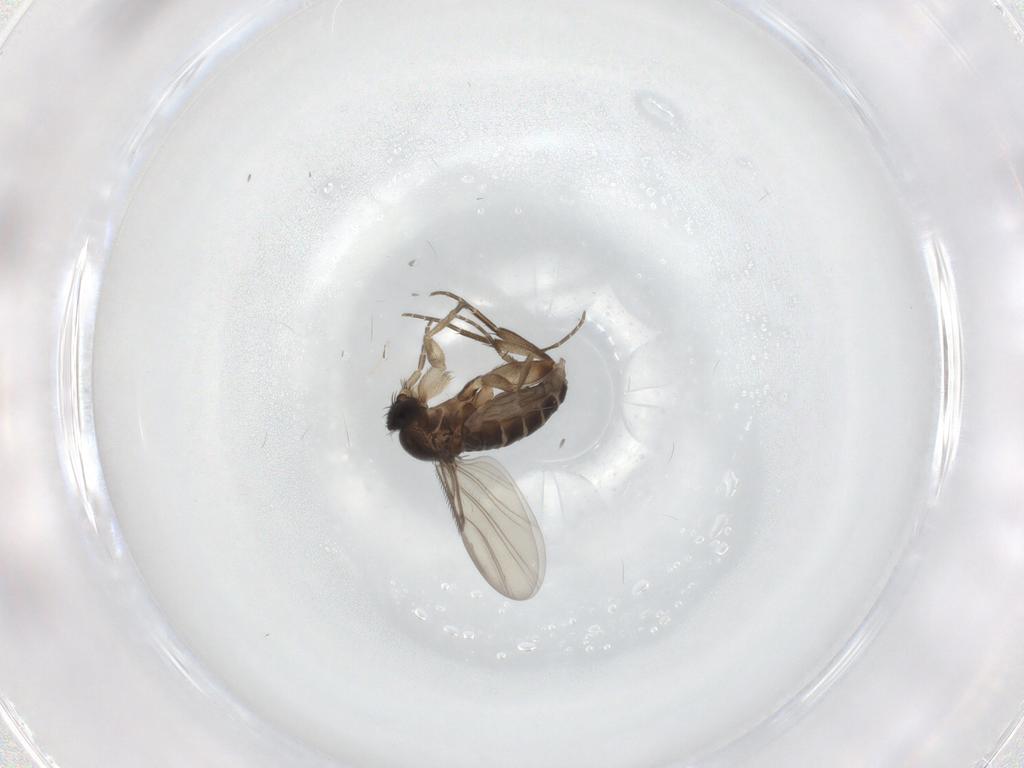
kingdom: Animalia
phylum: Arthropoda
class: Insecta
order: Diptera
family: Phoridae
